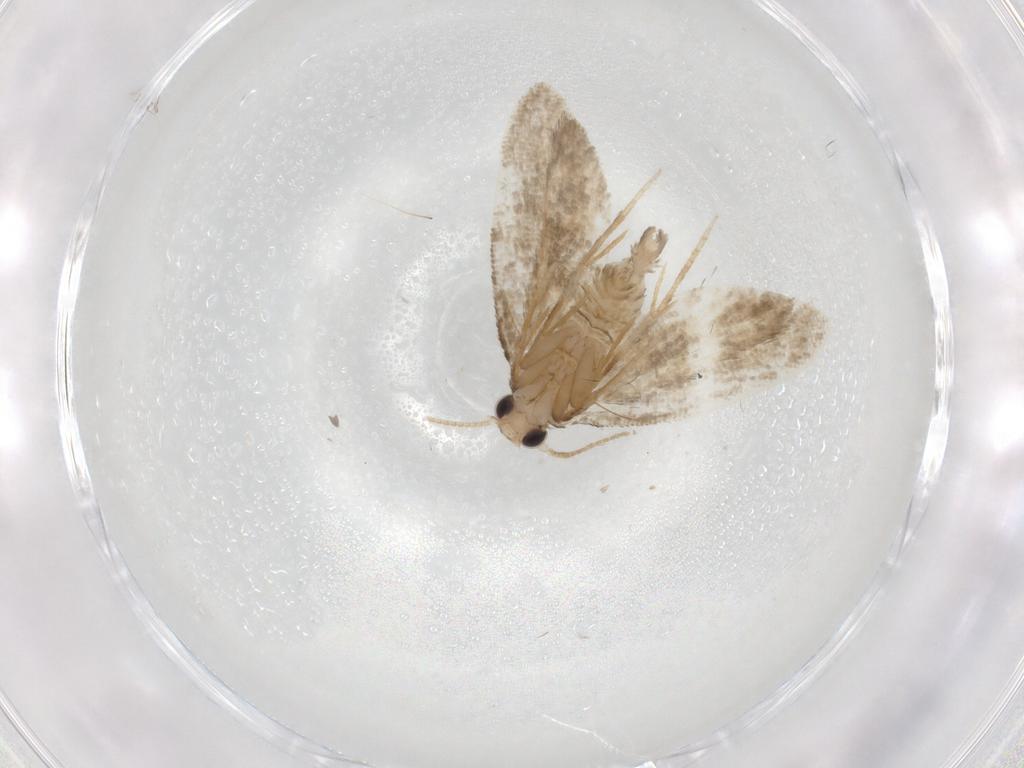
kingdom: Animalia
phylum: Arthropoda
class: Insecta
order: Lepidoptera
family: Psychidae
